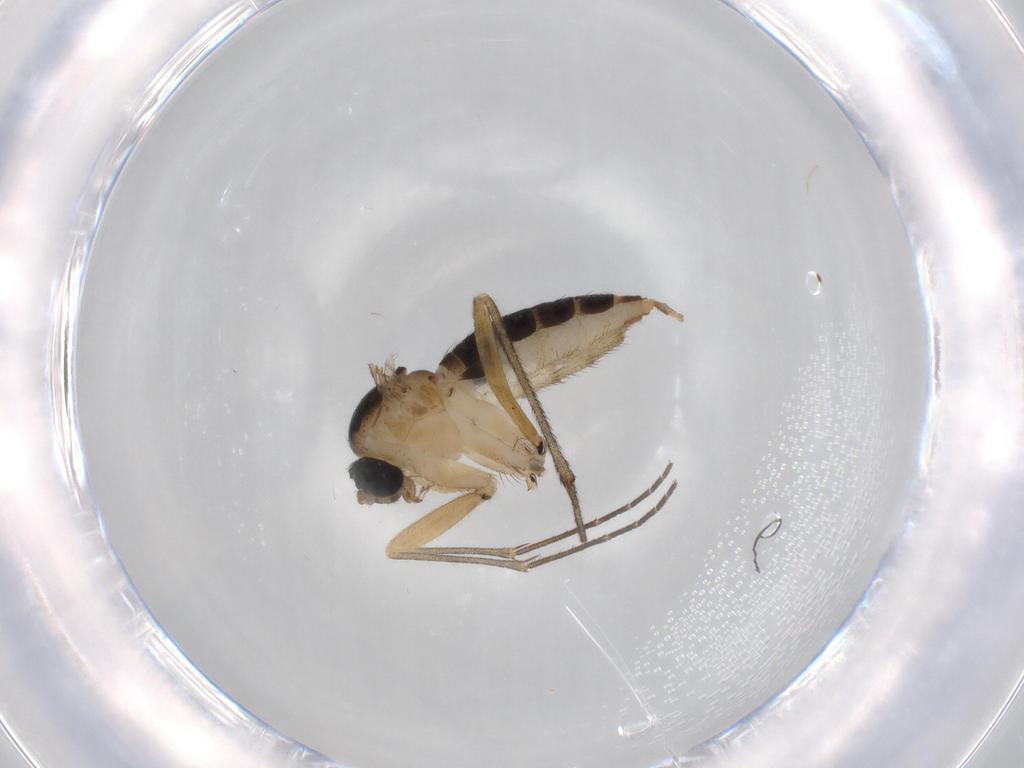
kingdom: Animalia
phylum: Arthropoda
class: Insecta
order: Diptera
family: Sciaridae
